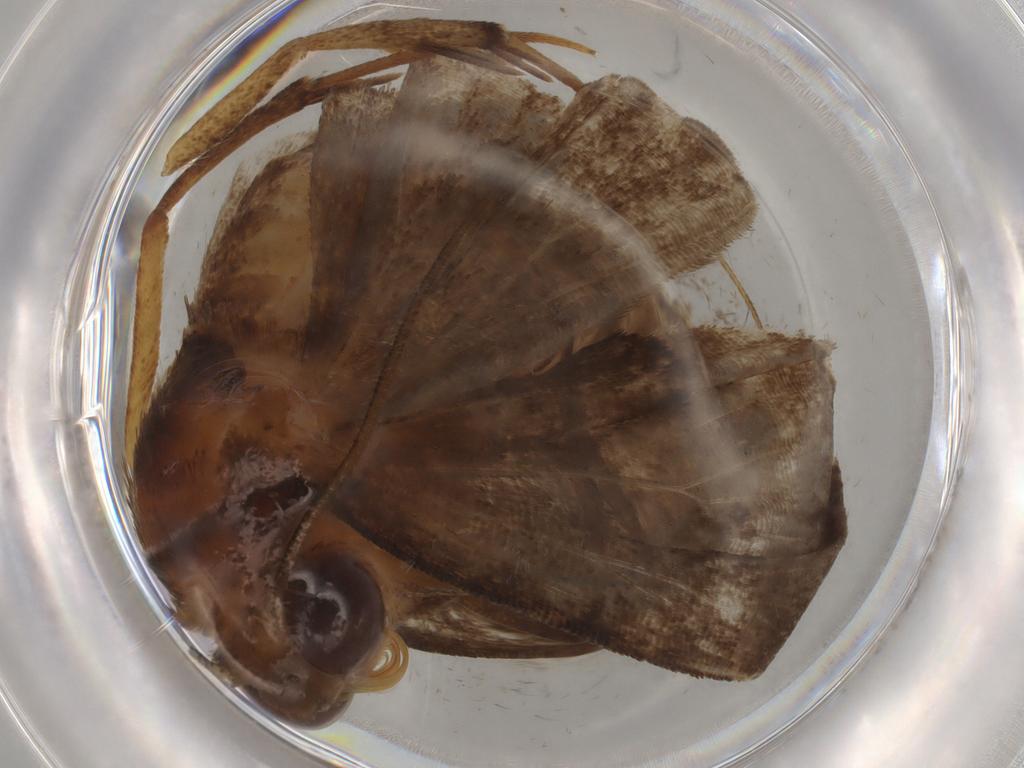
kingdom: Animalia
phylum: Arthropoda
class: Insecta
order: Lepidoptera
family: Erebidae
